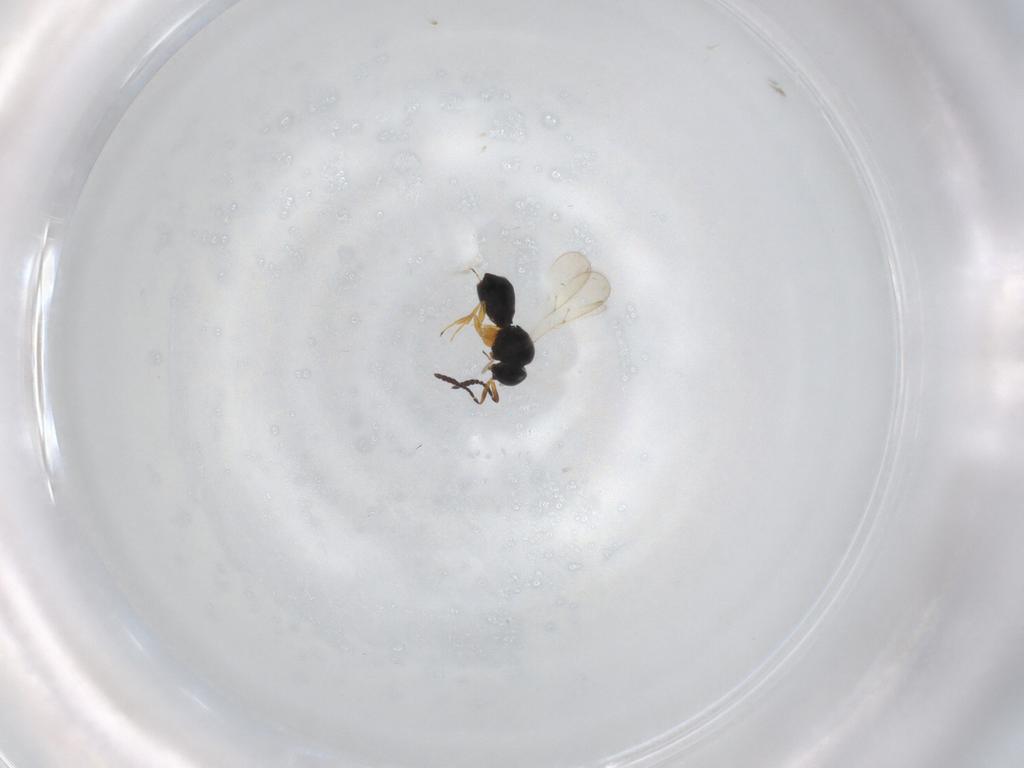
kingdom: Animalia
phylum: Arthropoda
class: Insecta
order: Hymenoptera
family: Scelionidae
